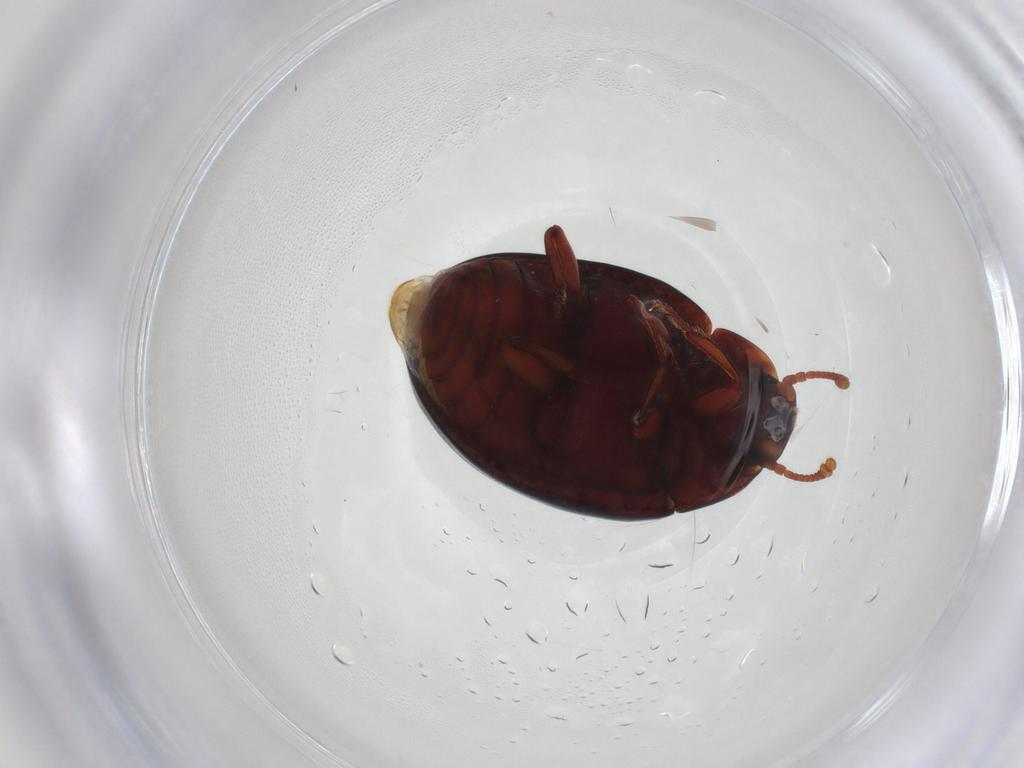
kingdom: Animalia
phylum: Arthropoda
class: Insecta
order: Coleoptera
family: Zopheridae
